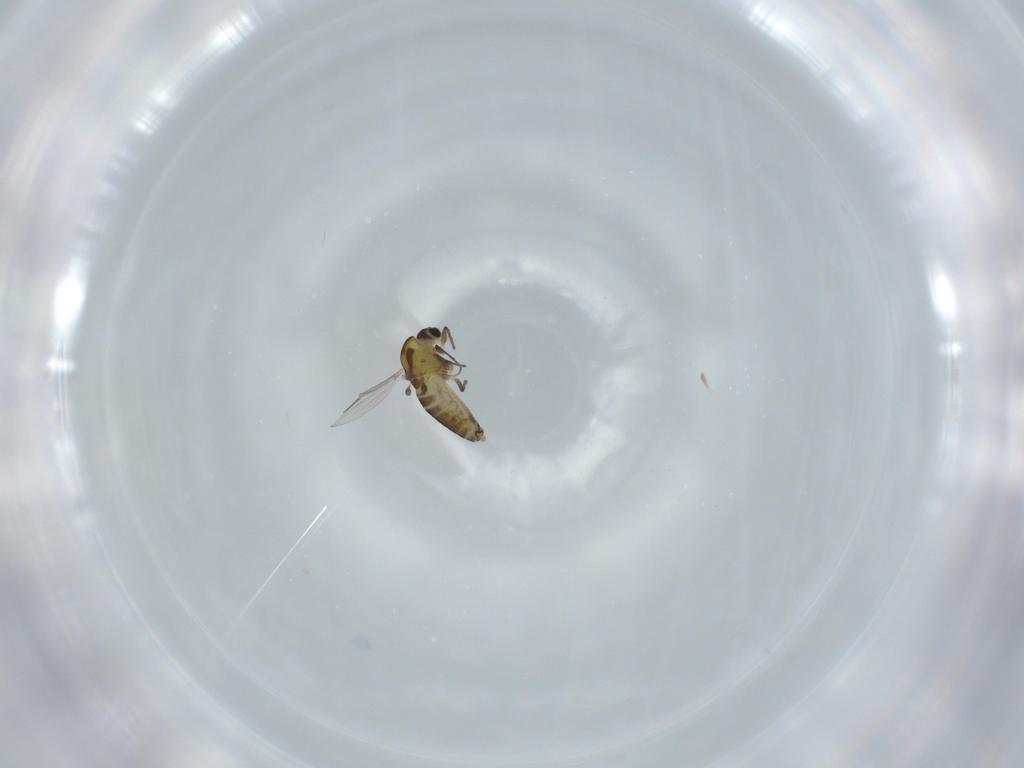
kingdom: Animalia
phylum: Arthropoda
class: Insecta
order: Diptera
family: Chironomidae
